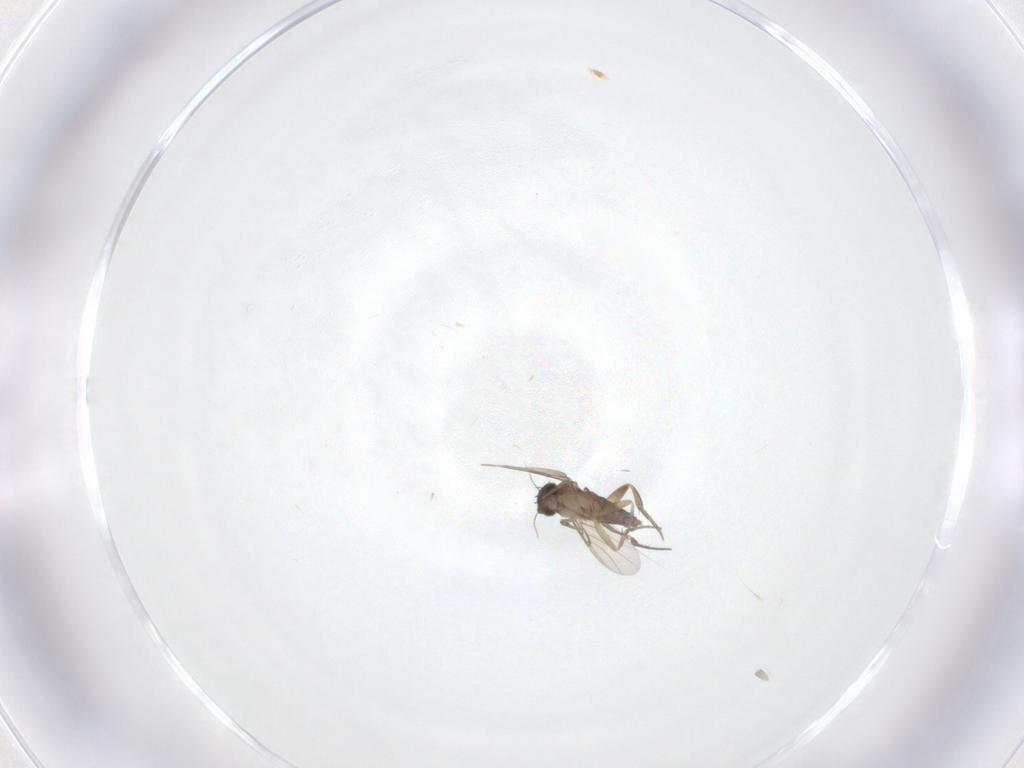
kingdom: Animalia
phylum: Arthropoda
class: Insecta
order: Diptera
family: Phoridae
